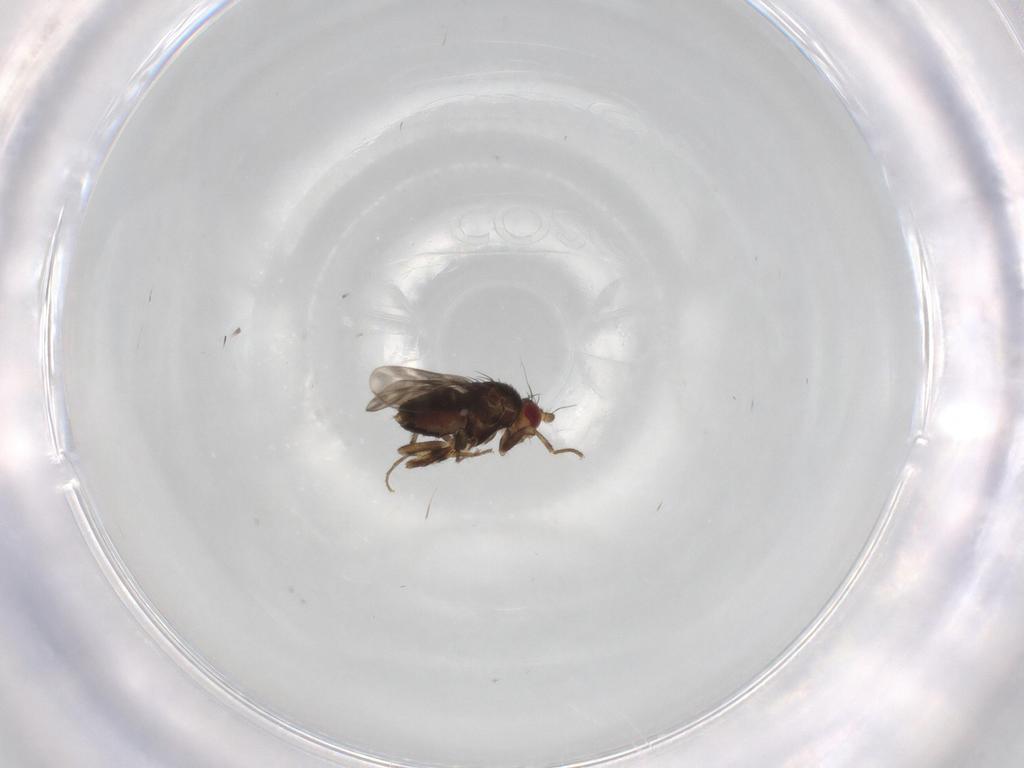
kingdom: Animalia
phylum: Arthropoda
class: Insecta
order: Diptera
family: Sphaeroceridae
